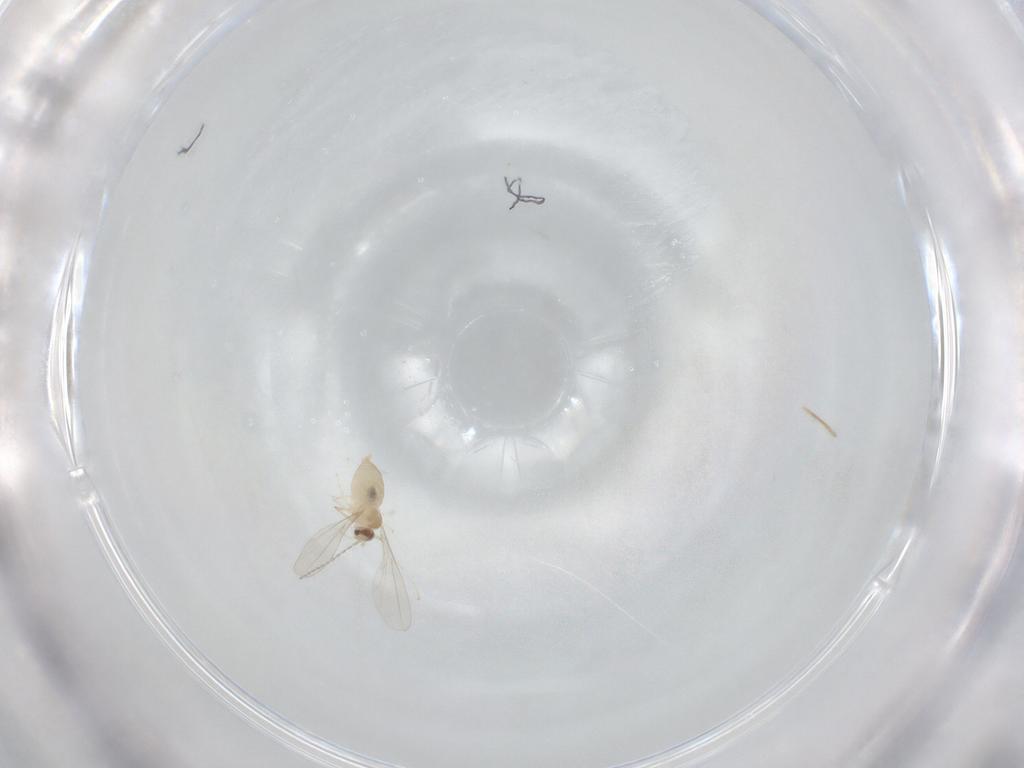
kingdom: Animalia
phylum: Arthropoda
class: Insecta
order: Diptera
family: Cecidomyiidae
